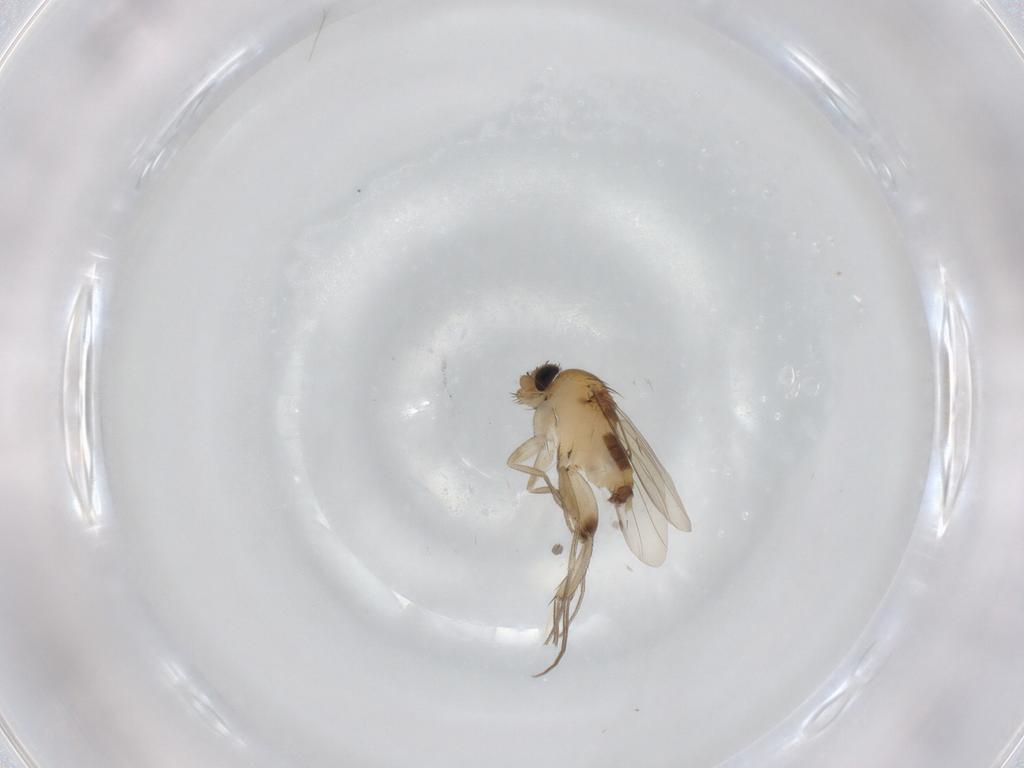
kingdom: Animalia
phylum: Arthropoda
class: Insecta
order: Diptera
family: Phoridae
